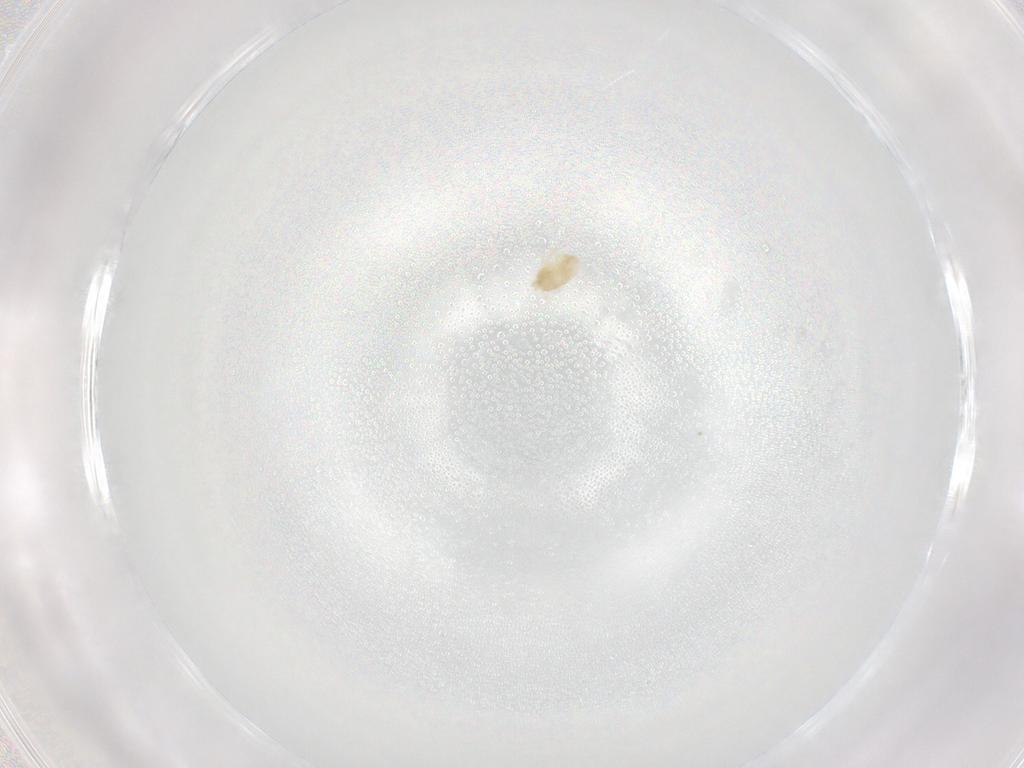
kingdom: Animalia
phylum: Arthropoda
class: Arachnida
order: Trombidiformes
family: Eupodidae
